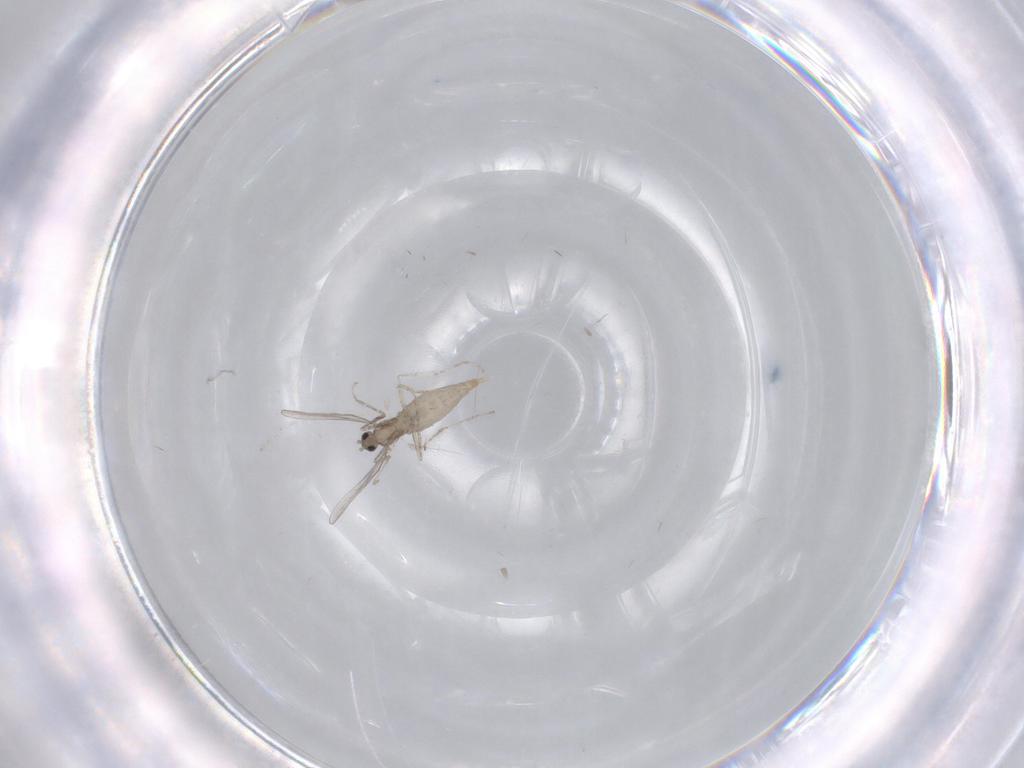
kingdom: Animalia
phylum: Arthropoda
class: Insecta
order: Diptera
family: Cecidomyiidae
